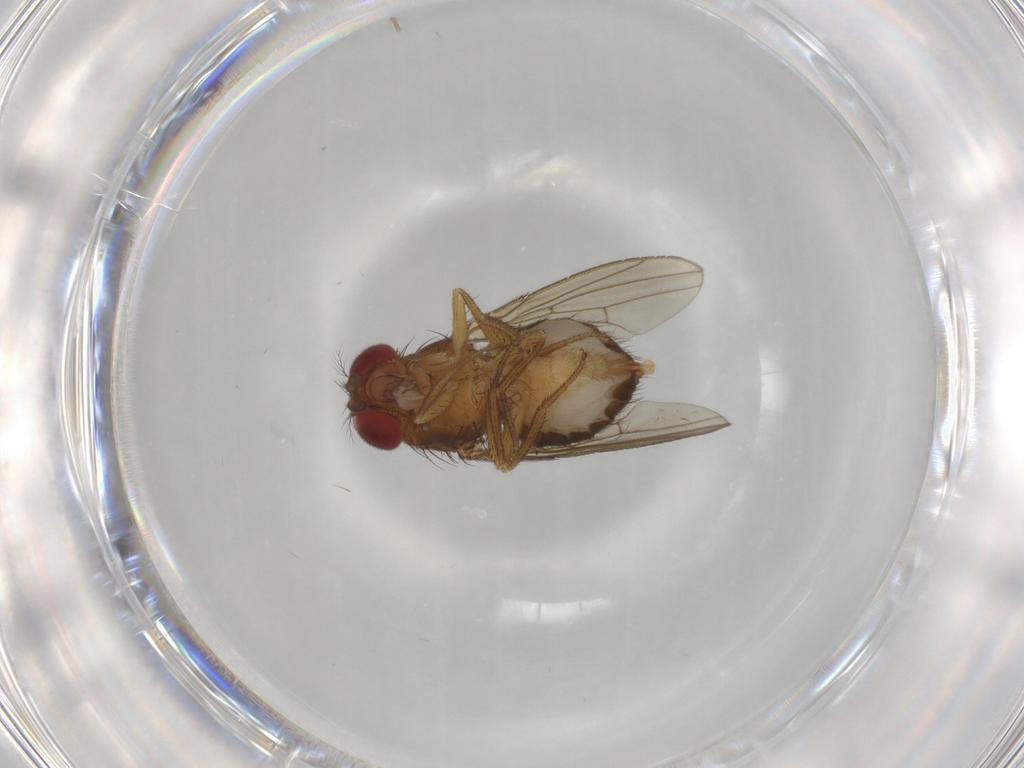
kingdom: Animalia
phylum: Arthropoda
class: Insecta
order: Diptera
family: Drosophilidae
